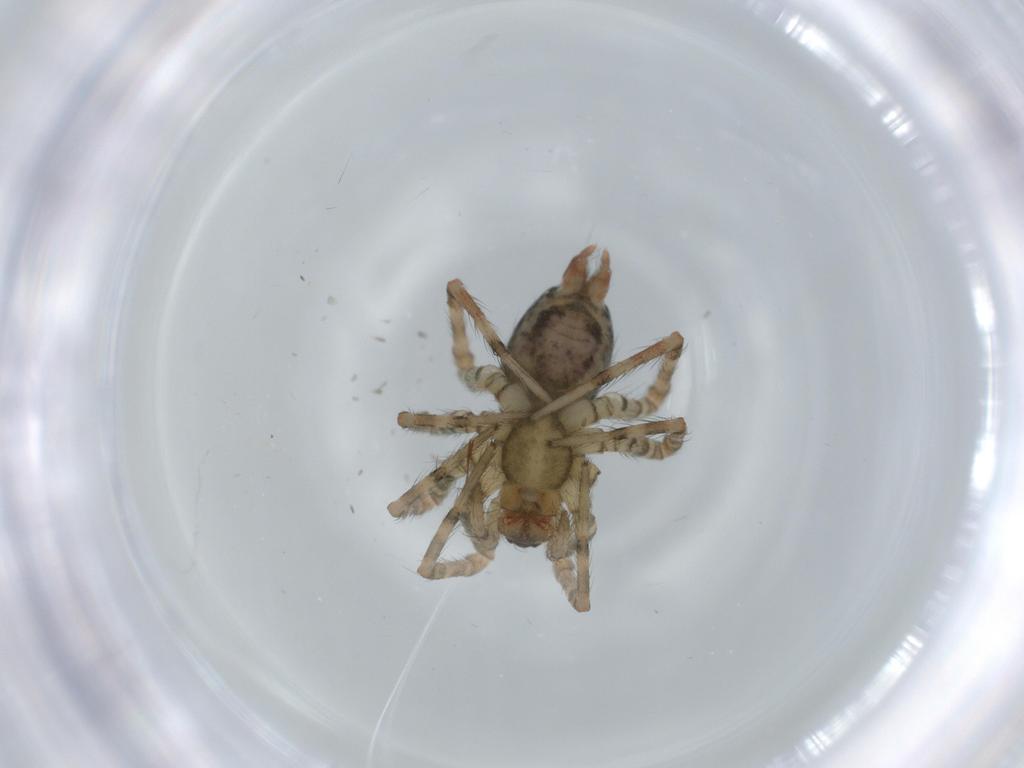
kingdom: Animalia
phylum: Arthropoda
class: Arachnida
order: Araneae
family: Agelenidae
